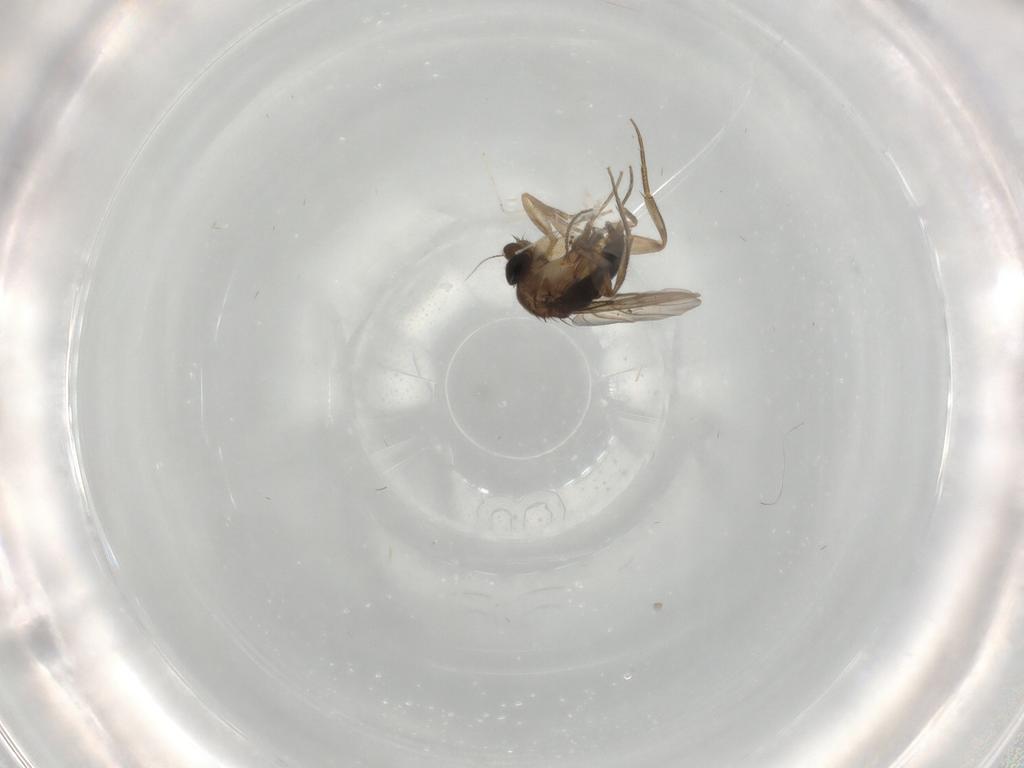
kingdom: Animalia
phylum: Arthropoda
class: Insecta
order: Diptera
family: Phoridae
